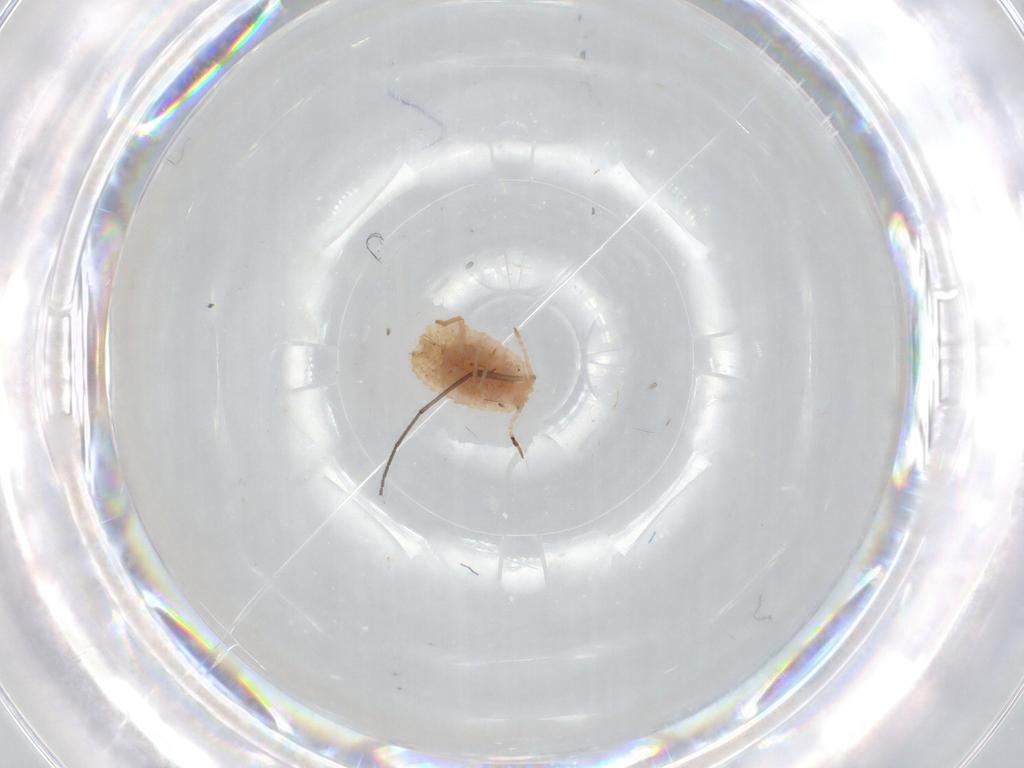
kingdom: Animalia
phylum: Arthropoda
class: Insecta
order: Hemiptera
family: Coccoidea_incertae_sedis
